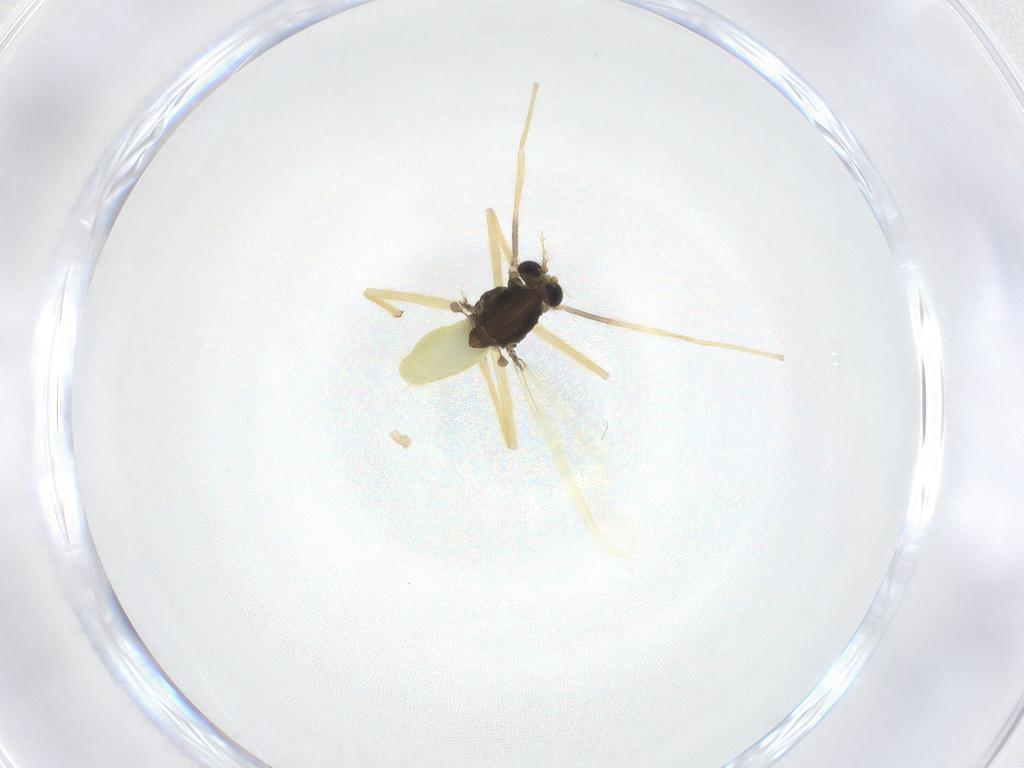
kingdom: Animalia
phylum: Arthropoda
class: Insecta
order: Diptera
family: Chironomidae
